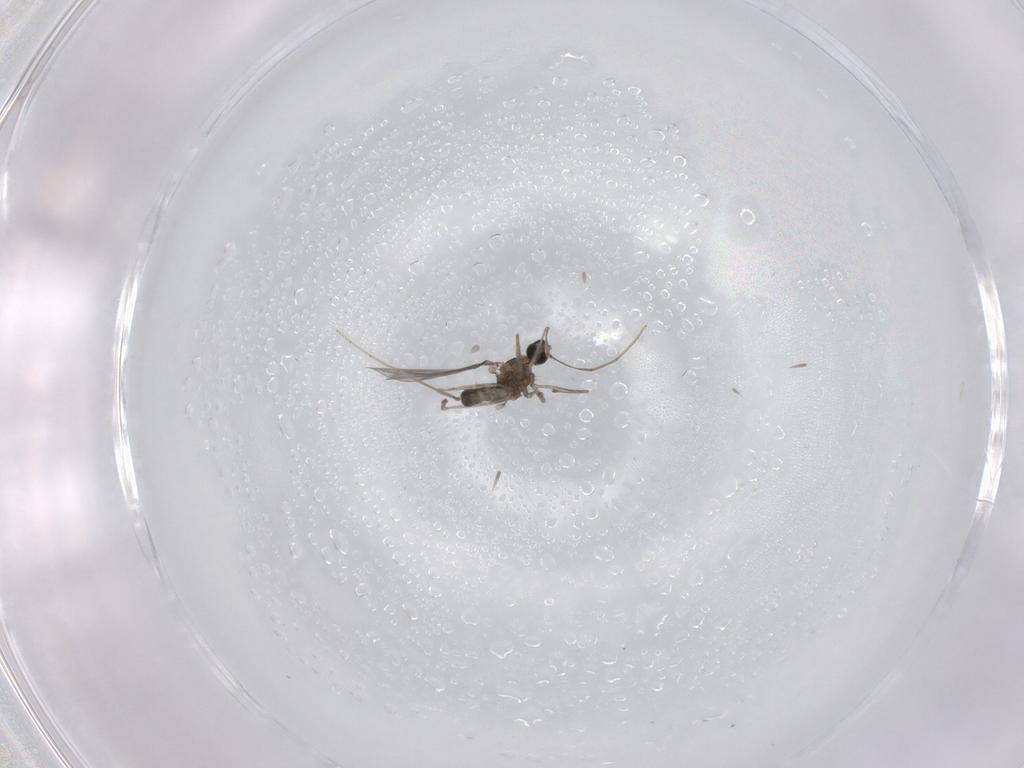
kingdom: Animalia
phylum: Arthropoda
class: Insecta
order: Diptera
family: Cecidomyiidae
